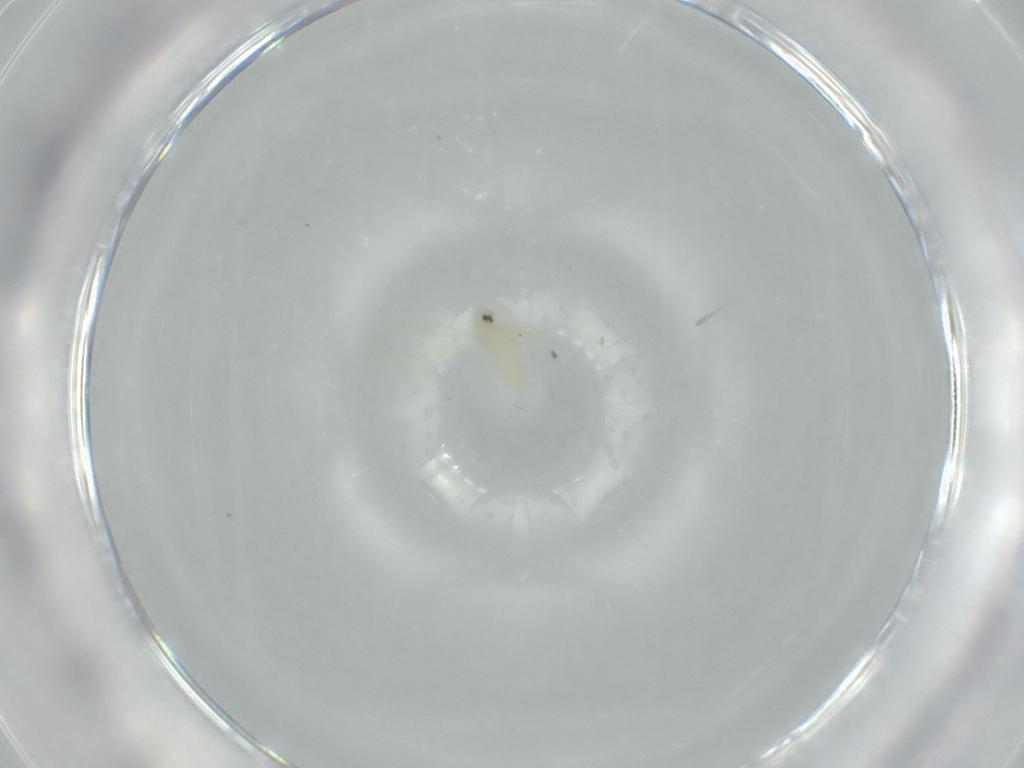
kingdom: Animalia
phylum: Arthropoda
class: Insecta
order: Hemiptera
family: Aleyrodidae
